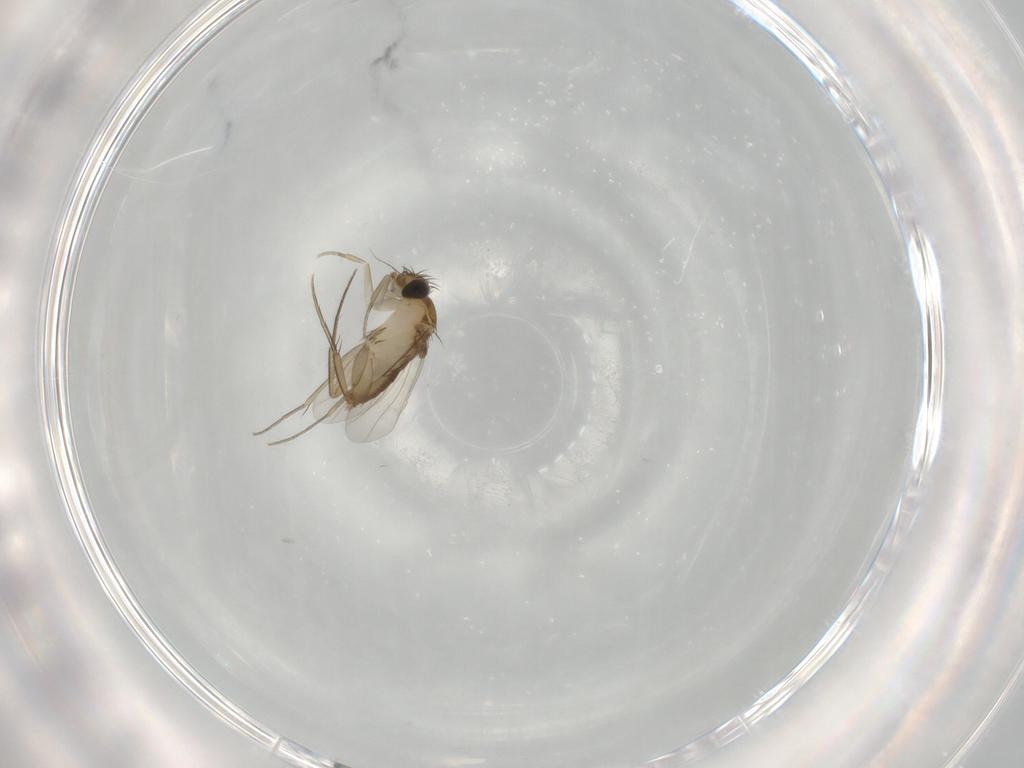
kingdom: Animalia
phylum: Arthropoda
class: Insecta
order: Diptera
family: Phoridae
